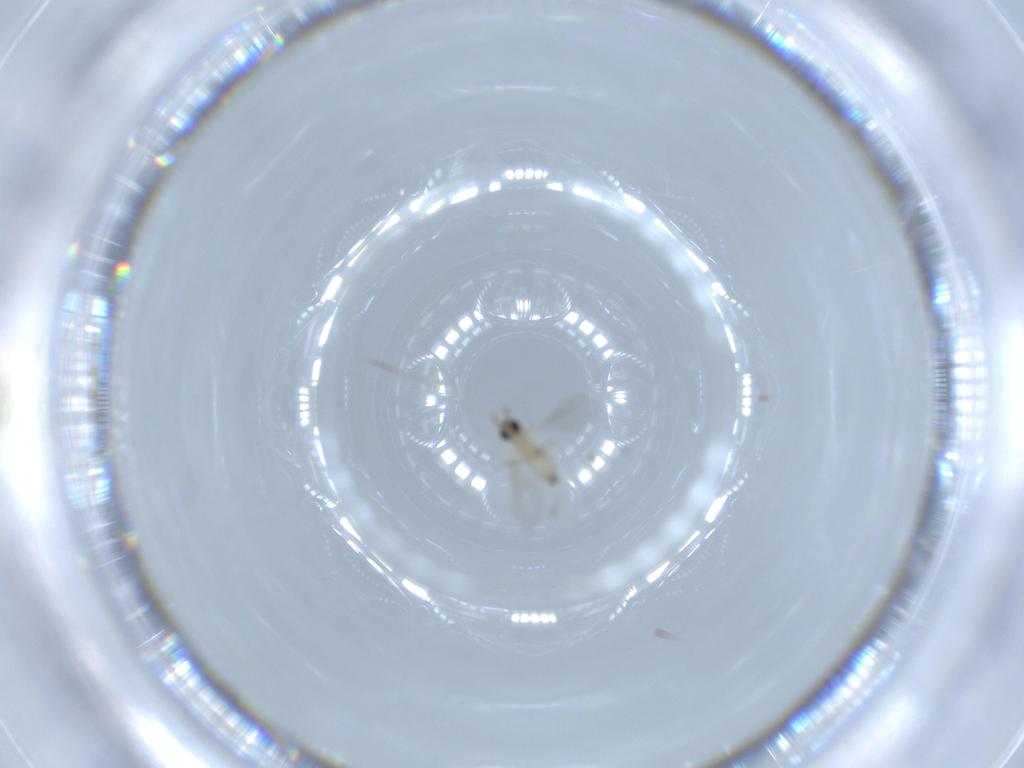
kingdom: Animalia
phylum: Arthropoda
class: Insecta
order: Diptera
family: Cecidomyiidae
